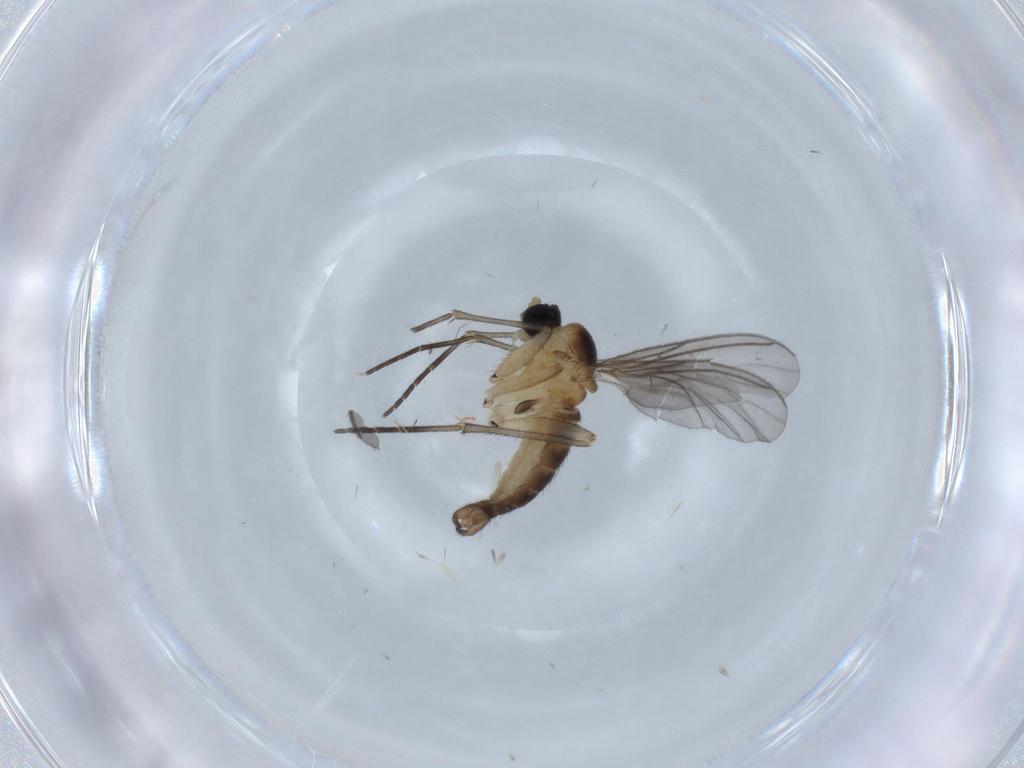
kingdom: Animalia
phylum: Arthropoda
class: Insecta
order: Diptera
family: Sciaridae
